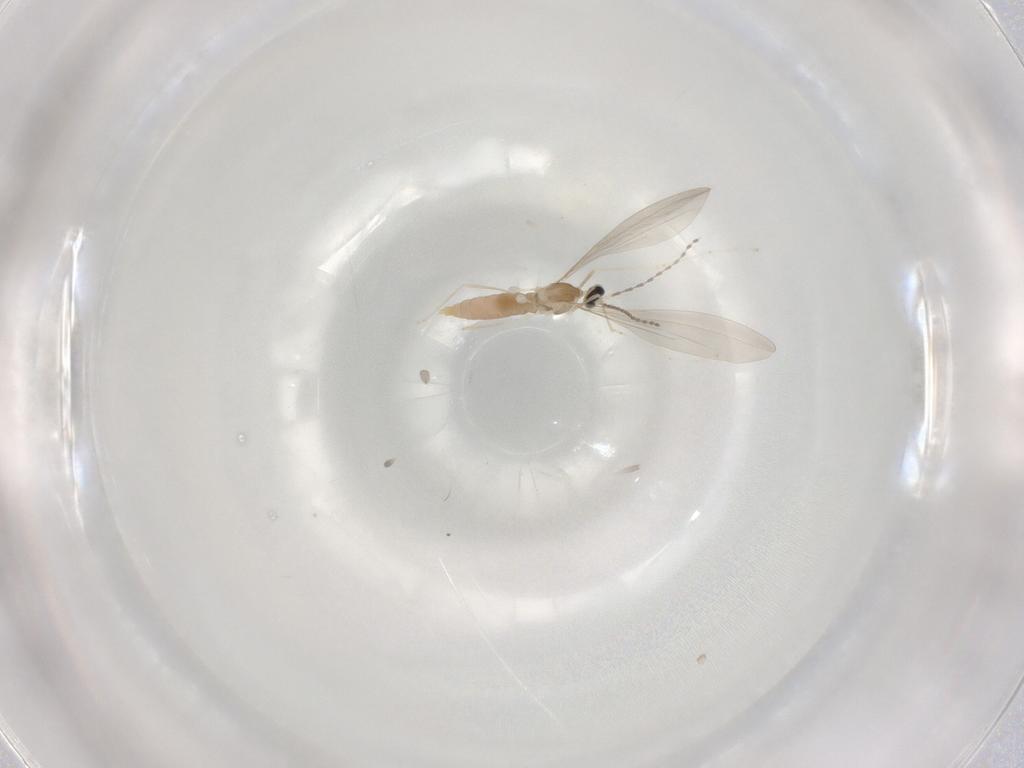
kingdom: Animalia
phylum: Arthropoda
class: Insecta
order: Diptera
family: Cecidomyiidae
